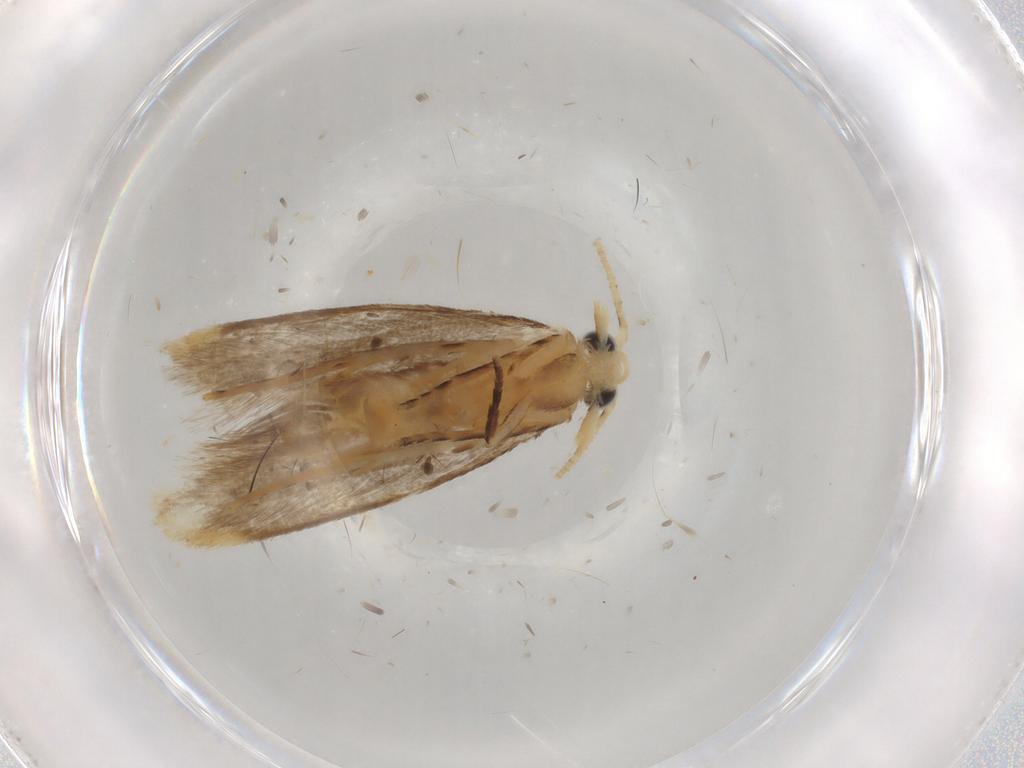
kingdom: Animalia
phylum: Arthropoda
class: Insecta
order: Lepidoptera
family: Dryadaulidae
